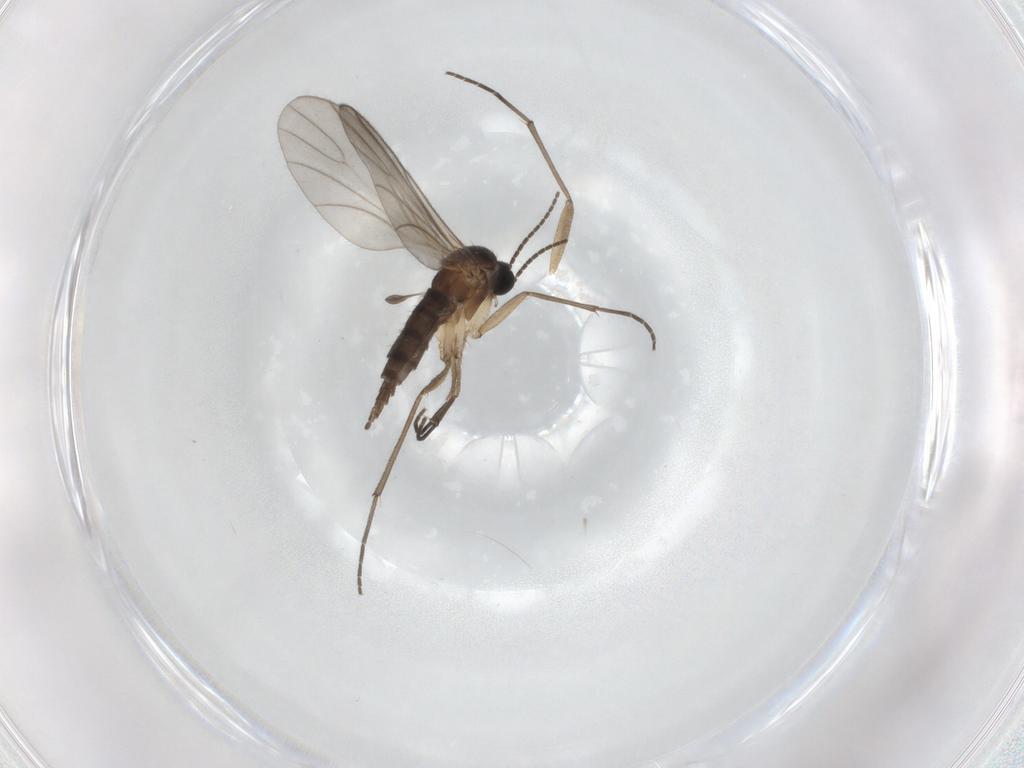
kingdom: Animalia
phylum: Arthropoda
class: Insecta
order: Diptera
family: Sciaridae
